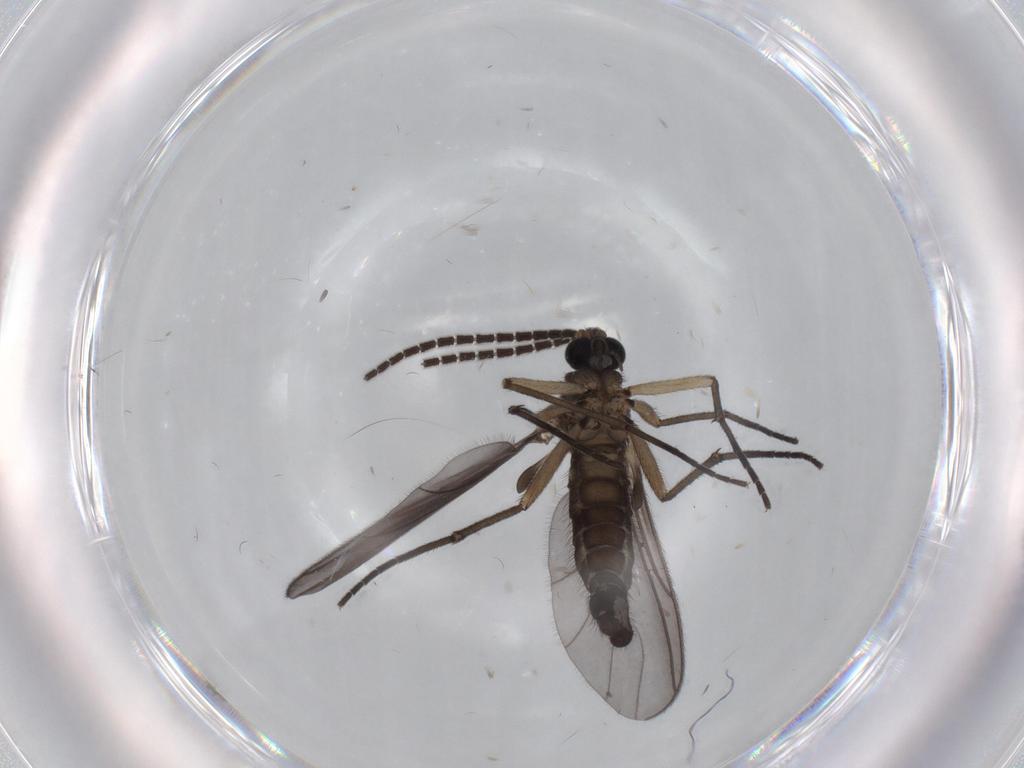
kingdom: Animalia
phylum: Arthropoda
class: Insecta
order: Diptera
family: Sciaridae
